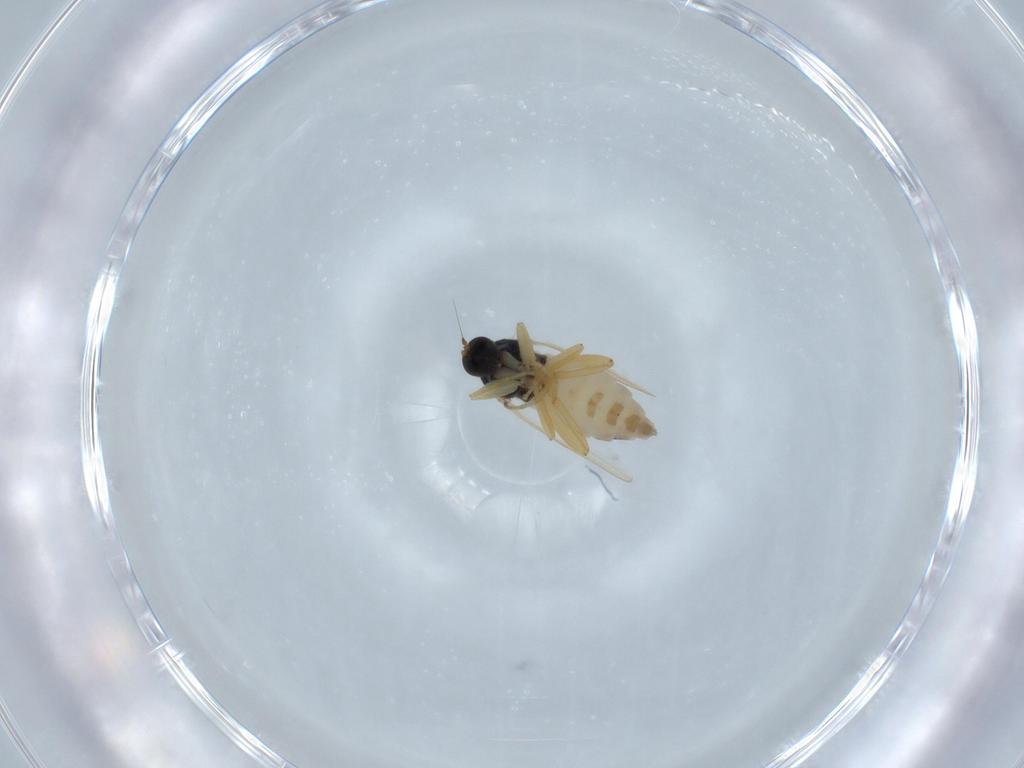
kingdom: Animalia
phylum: Arthropoda
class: Insecta
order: Diptera
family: Hybotidae
